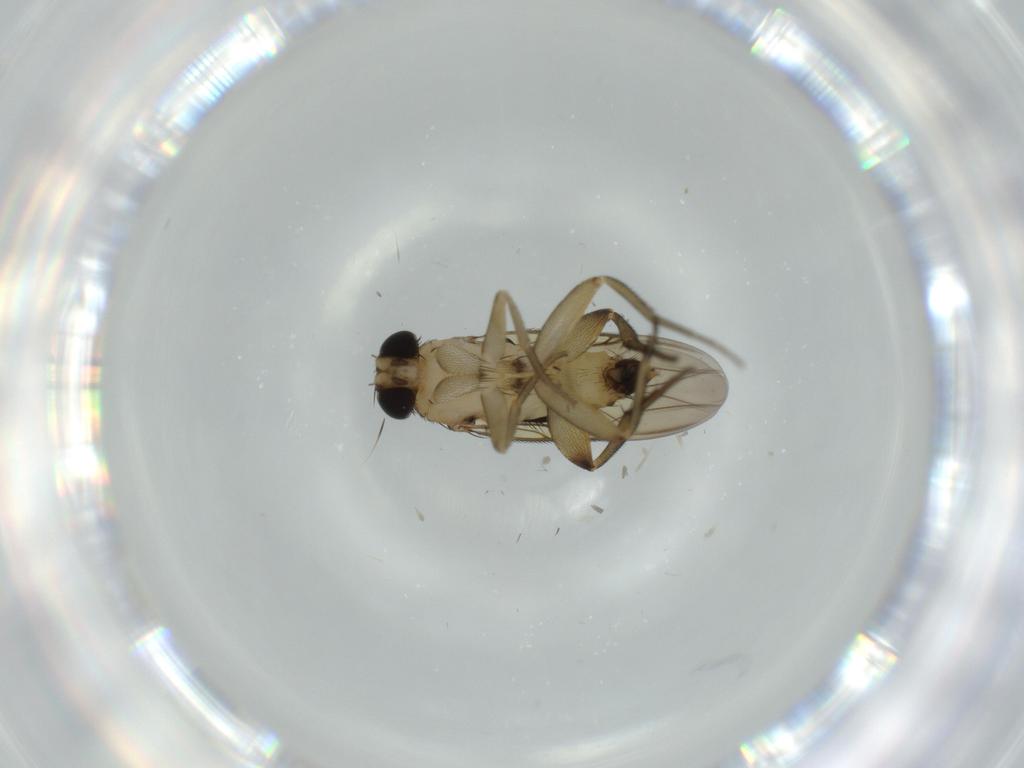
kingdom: Animalia
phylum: Arthropoda
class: Insecta
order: Diptera
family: Phoridae
